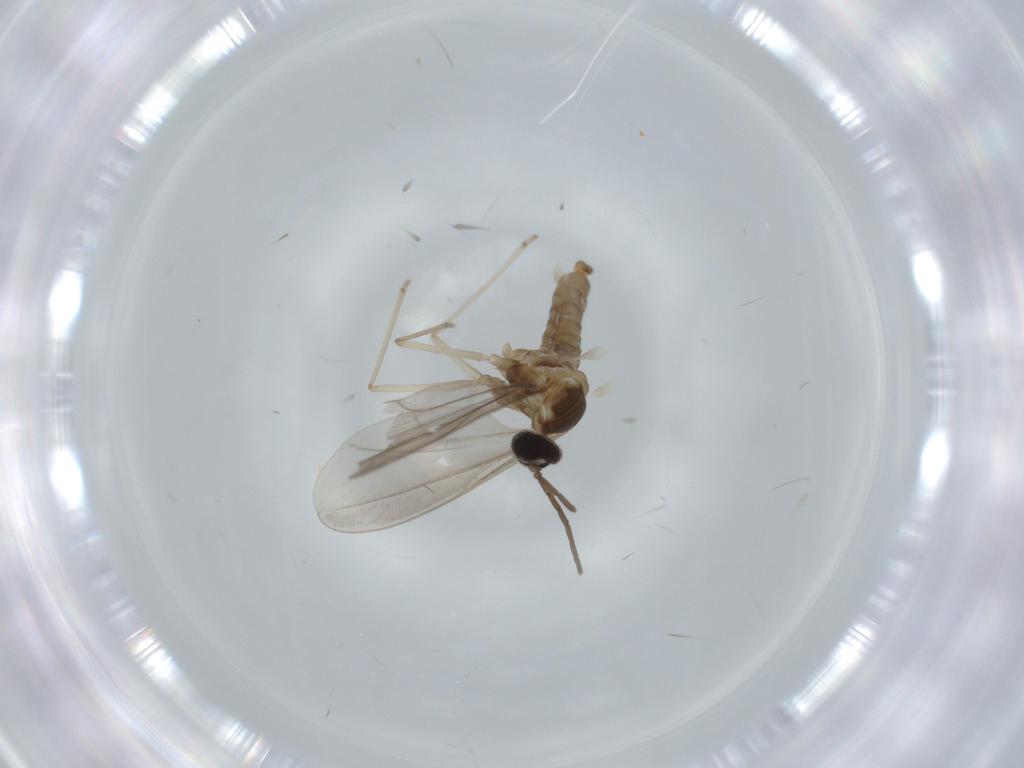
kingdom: Animalia
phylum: Arthropoda
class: Insecta
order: Diptera
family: Cecidomyiidae
